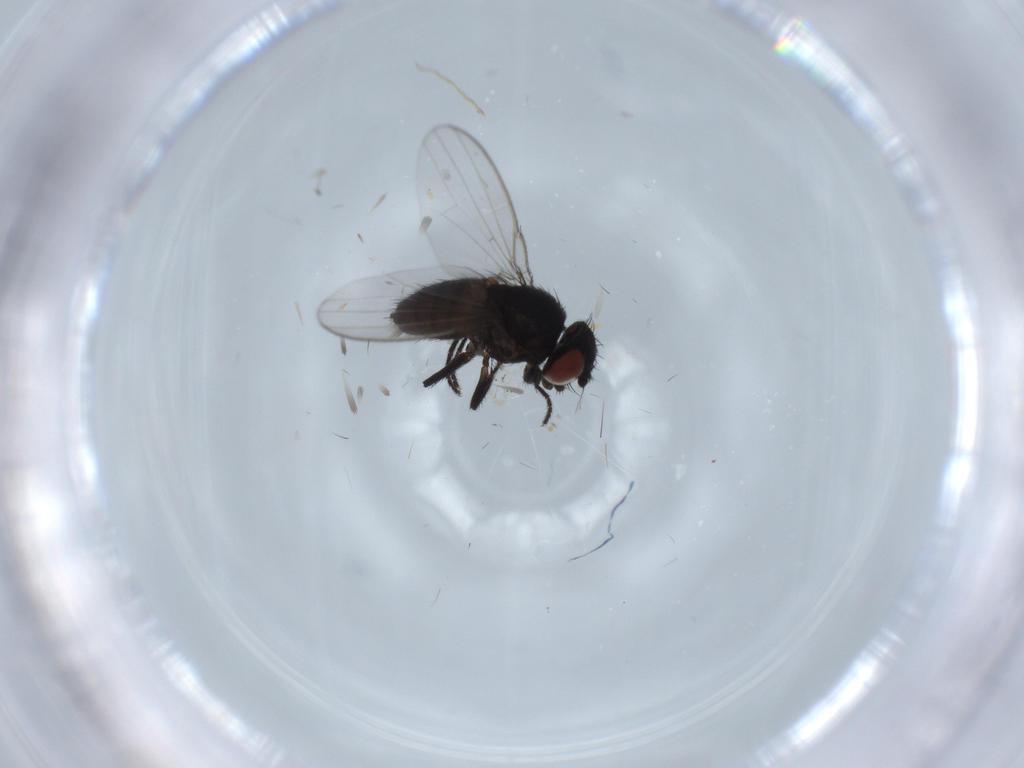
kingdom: Animalia
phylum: Arthropoda
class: Insecta
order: Diptera
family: Milichiidae
